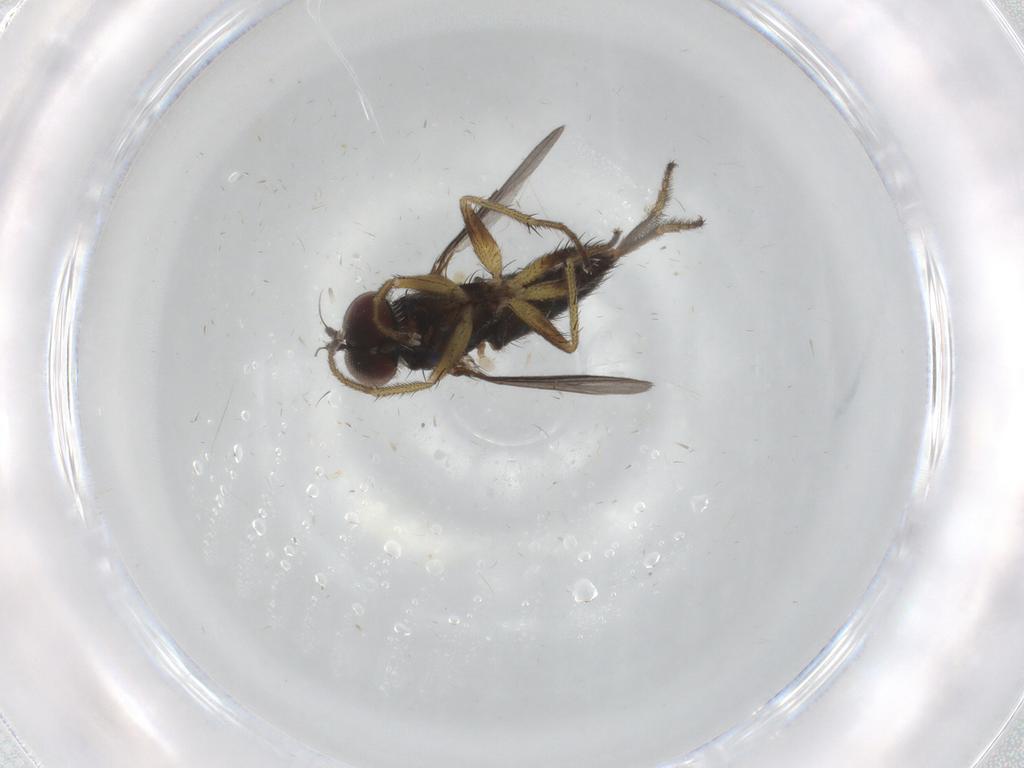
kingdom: Animalia
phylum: Arthropoda
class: Insecta
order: Diptera
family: Dolichopodidae
